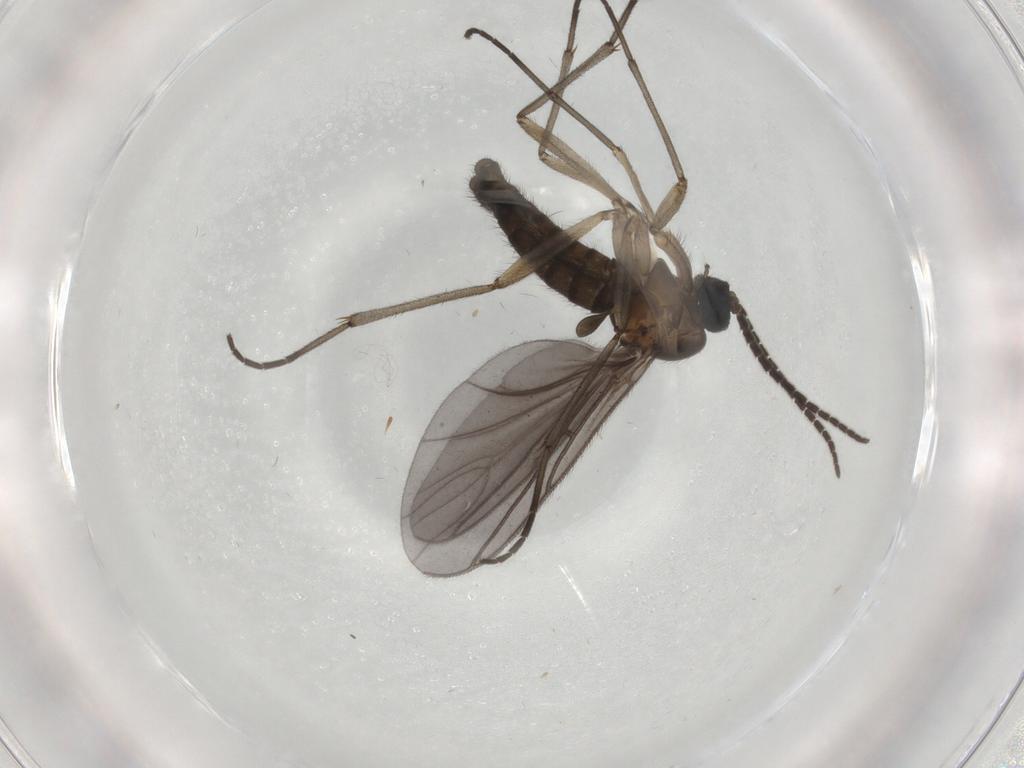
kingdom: Animalia
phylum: Arthropoda
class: Insecta
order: Diptera
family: Sciaridae
